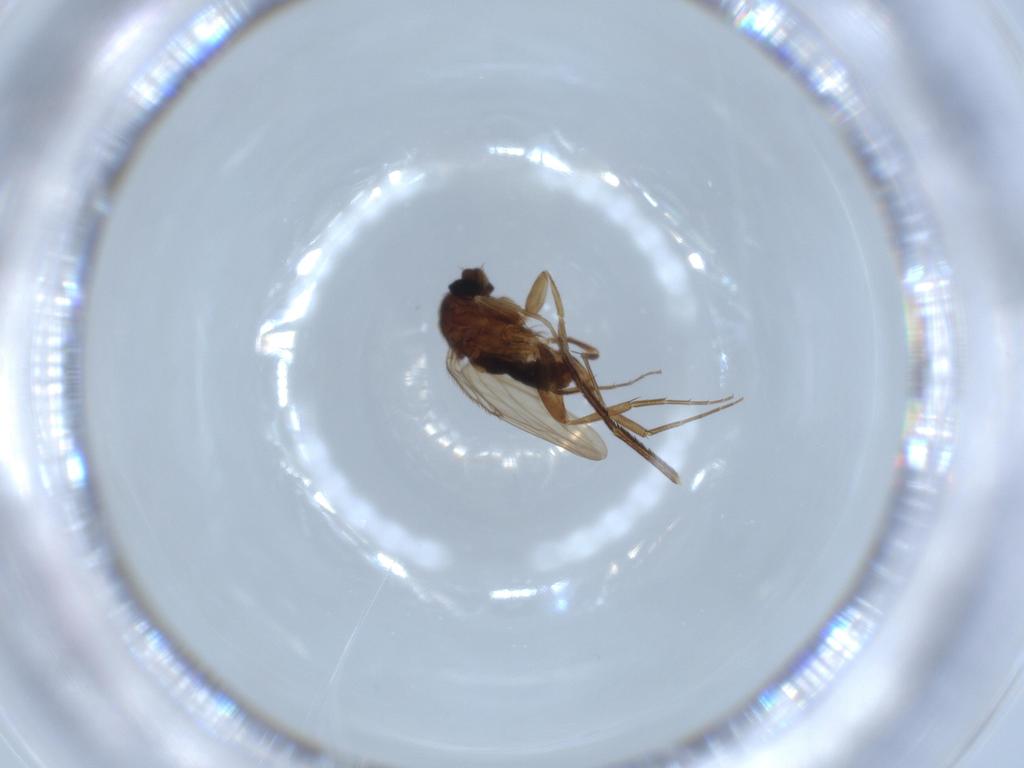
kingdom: Animalia
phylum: Arthropoda
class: Insecta
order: Diptera
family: Phoridae
